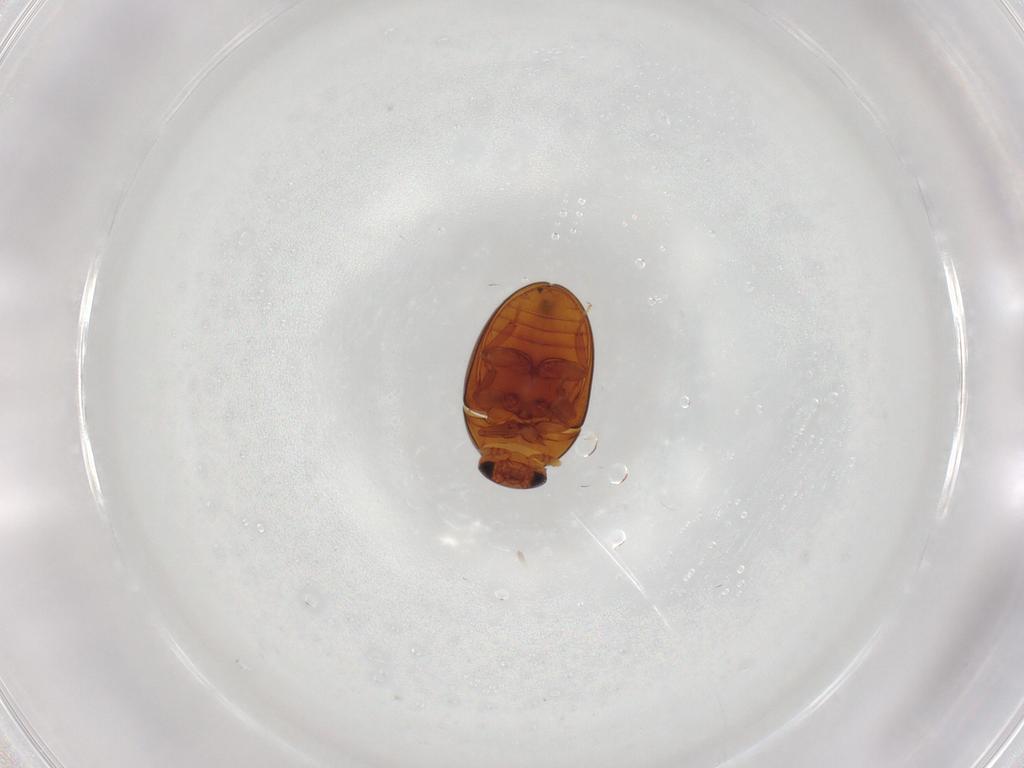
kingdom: Animalia
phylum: Arthropoda
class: Insecta
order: Coleoptera
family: Phalacridae
